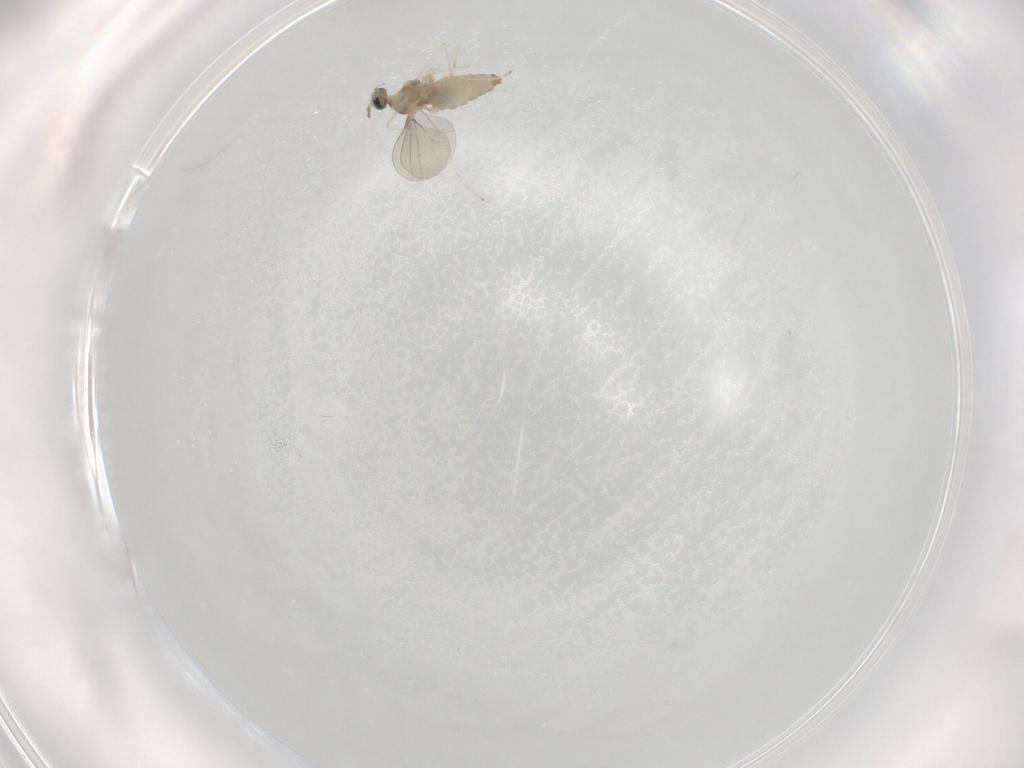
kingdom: Animalia
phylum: Arthropoda
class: Insecta
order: Diptera
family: Cecidomyiidae
